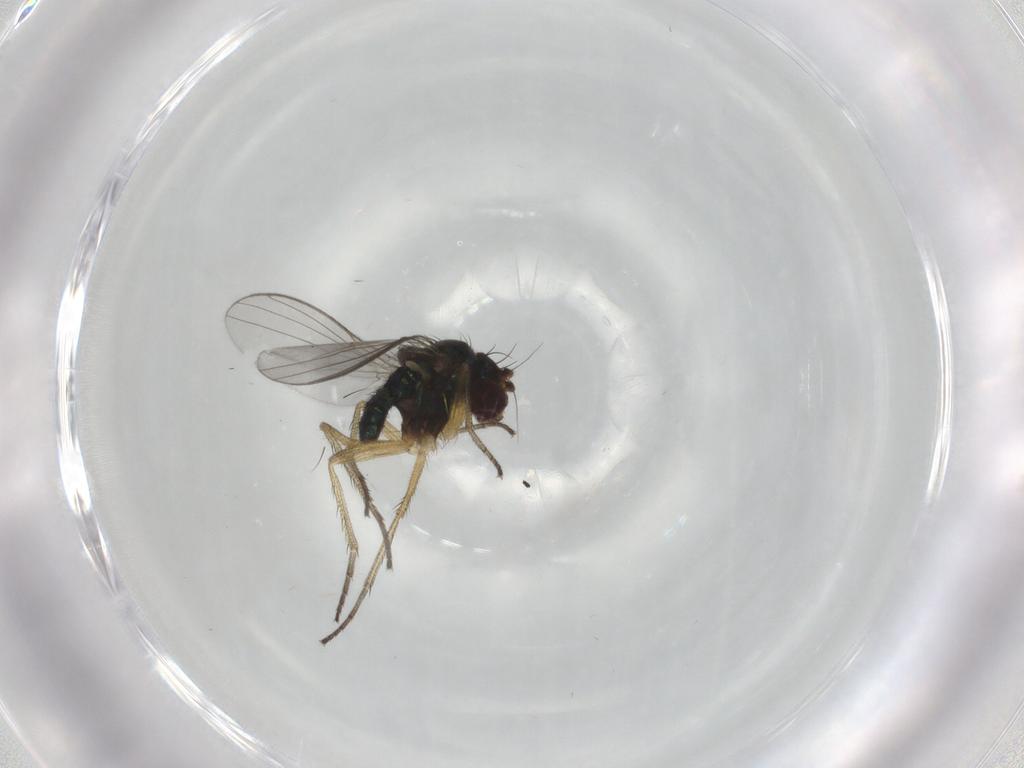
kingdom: Animalia
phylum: Arthropoda
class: Insecta
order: Diptera
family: Dolichopodidae
